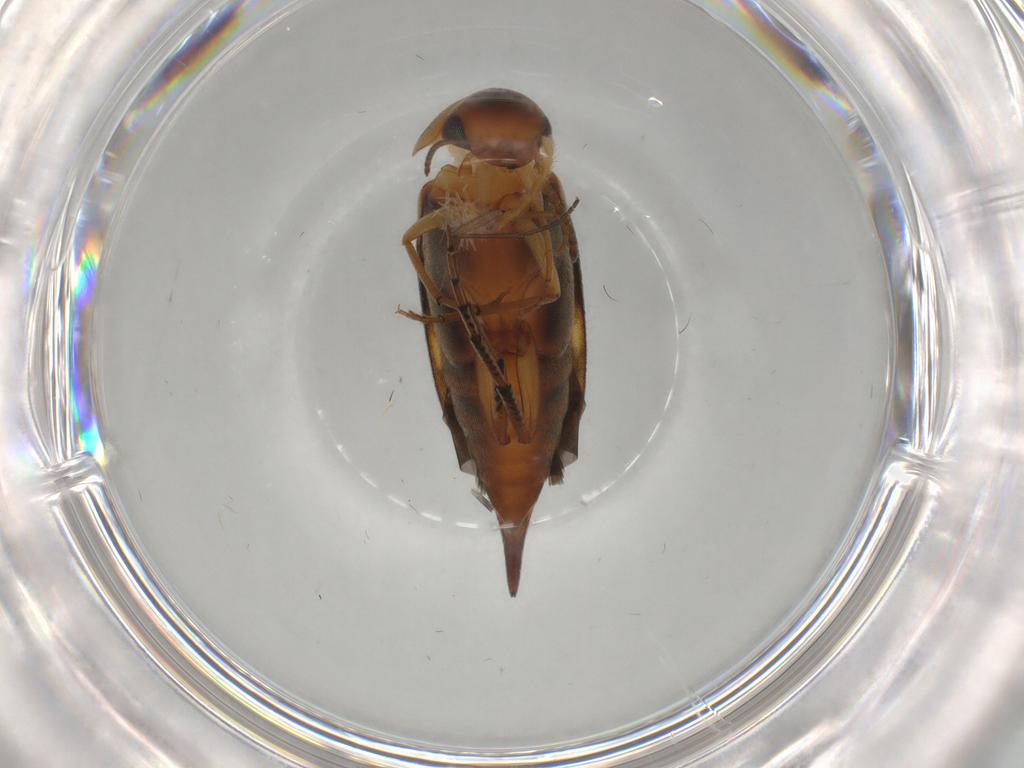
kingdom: Animalia
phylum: Arthropoda
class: Insecta
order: Coleoptera
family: Mordellidae
